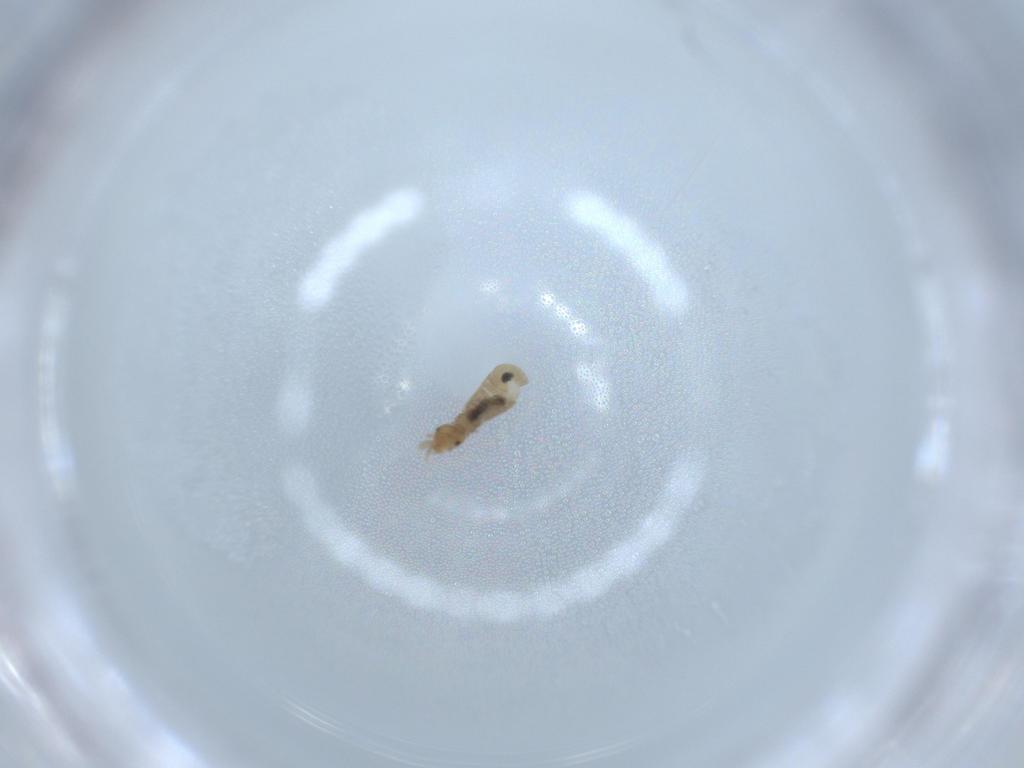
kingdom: Animalia
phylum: Arthropoda
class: Insecta
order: Psocodea
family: Liposcelididae
